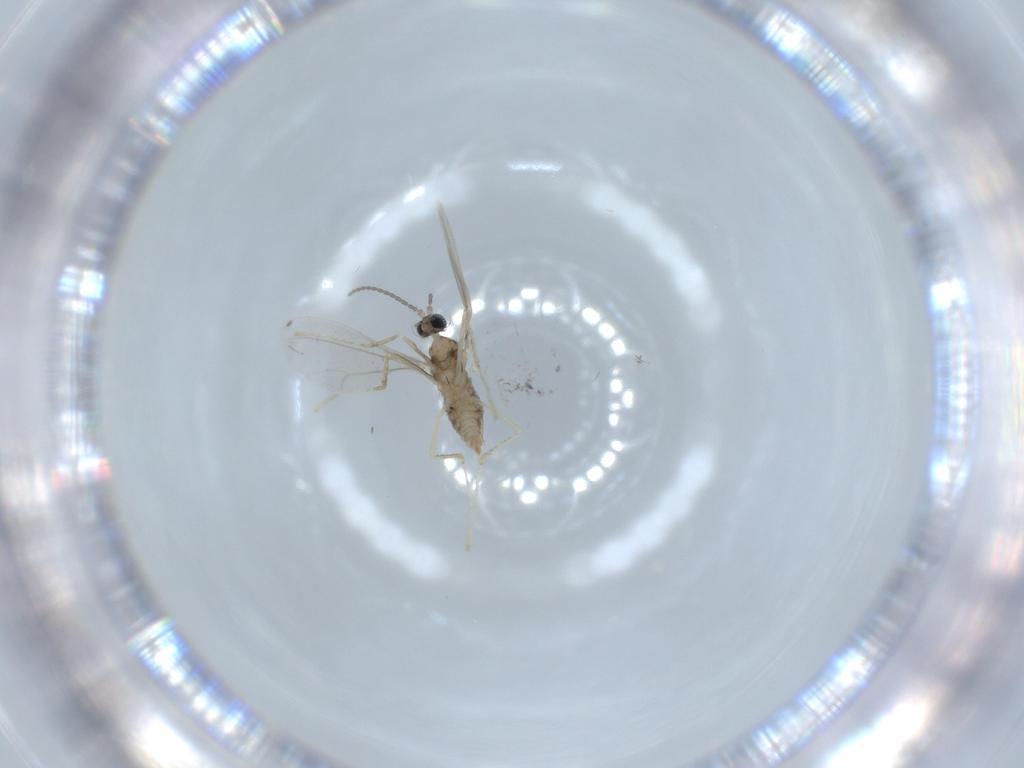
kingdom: Animalia
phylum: Arthropoda
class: Insecta
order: Diptera
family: Cecidomyiidae
